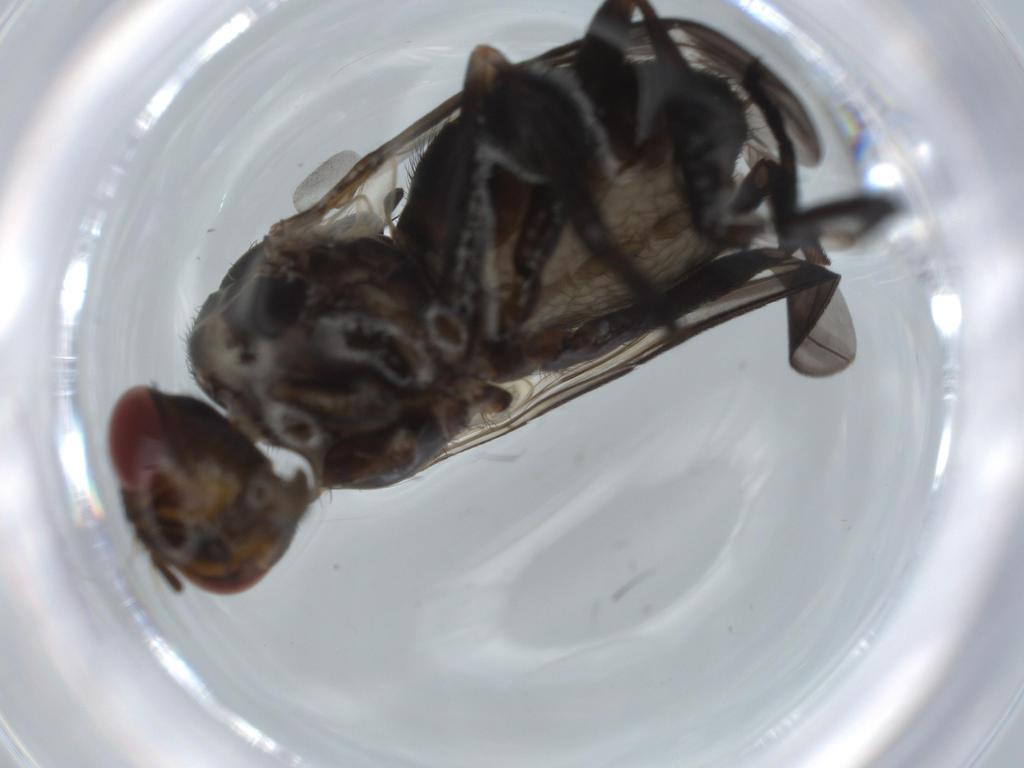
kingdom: Animalia
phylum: Arthropoda
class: Insecta
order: Diptera
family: Calliphoridae
